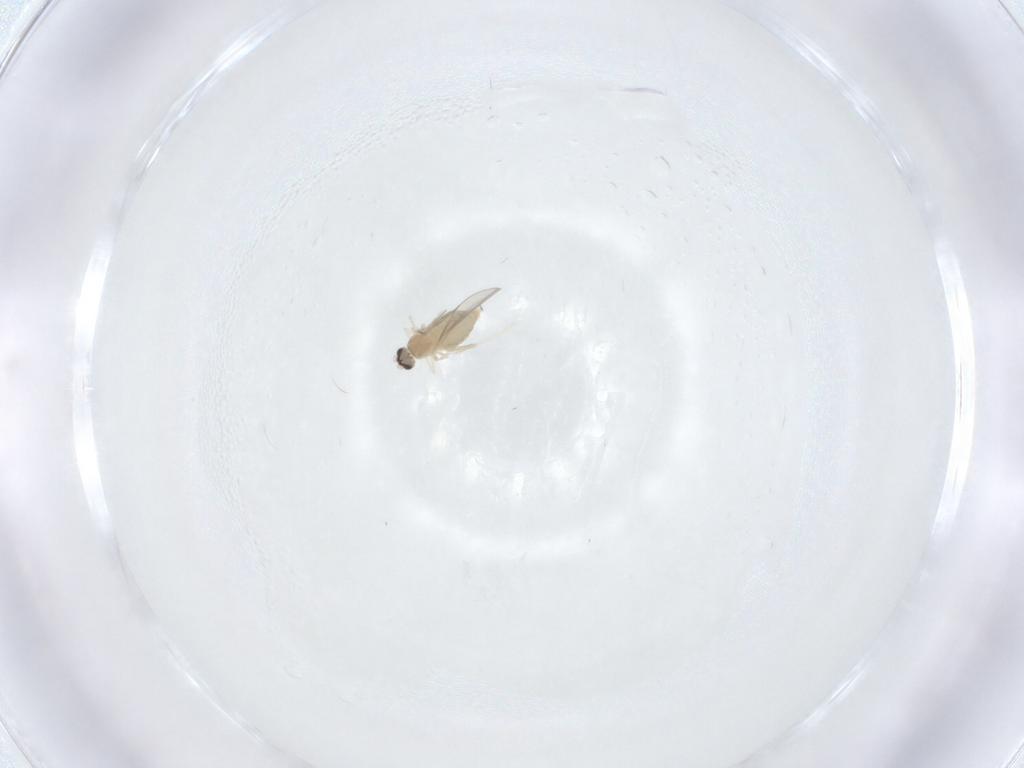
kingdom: Animalia
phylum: Arthropoda
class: Insecta
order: Diptera
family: Cecidomyiidae
